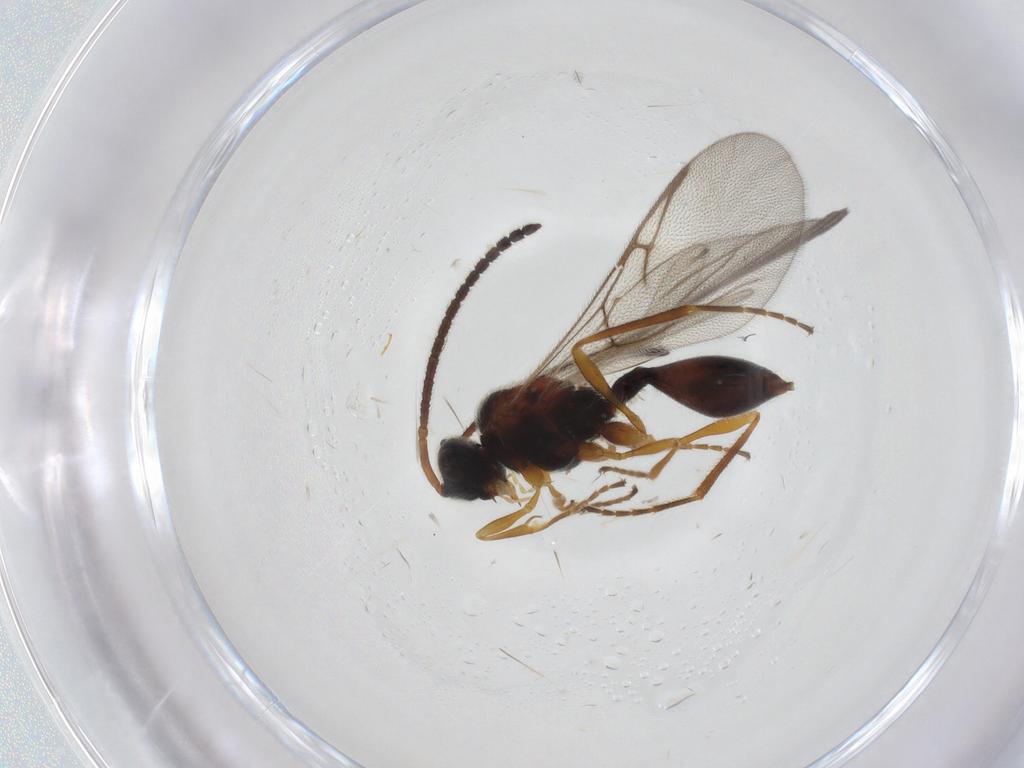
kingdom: Animalia
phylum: Arthropoda
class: Insecta
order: Hymenoptera
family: Diapriidae
